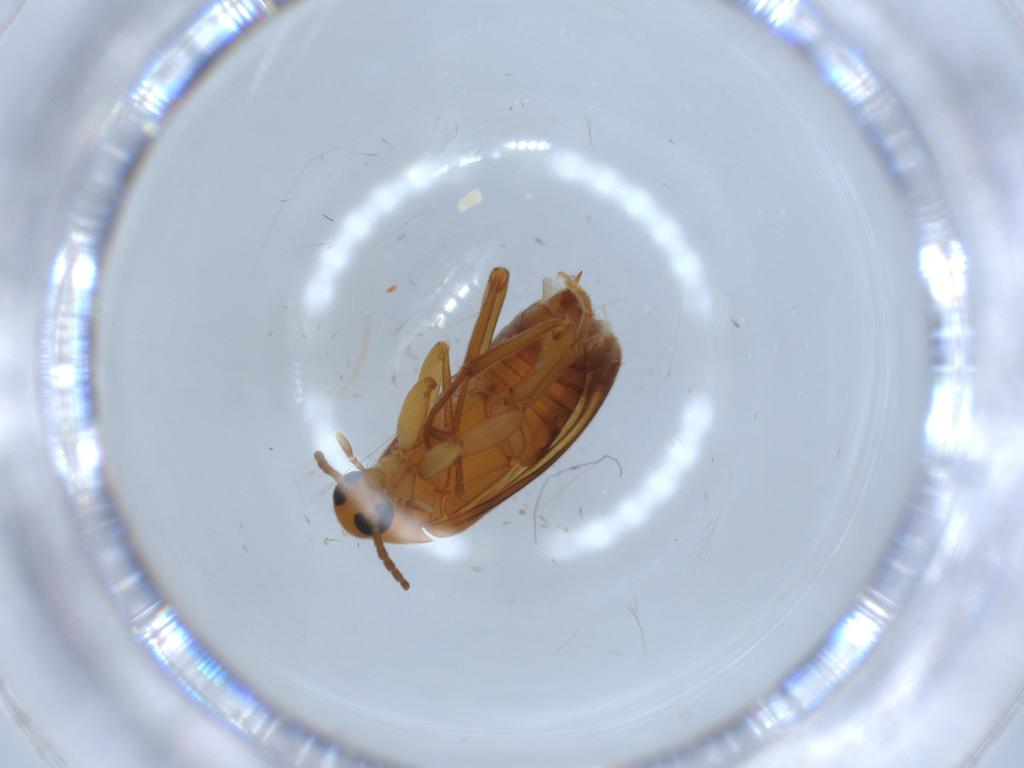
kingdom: Animalia
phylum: Arthropoda
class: Insecta
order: Coleoptera
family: Scraptiidae
